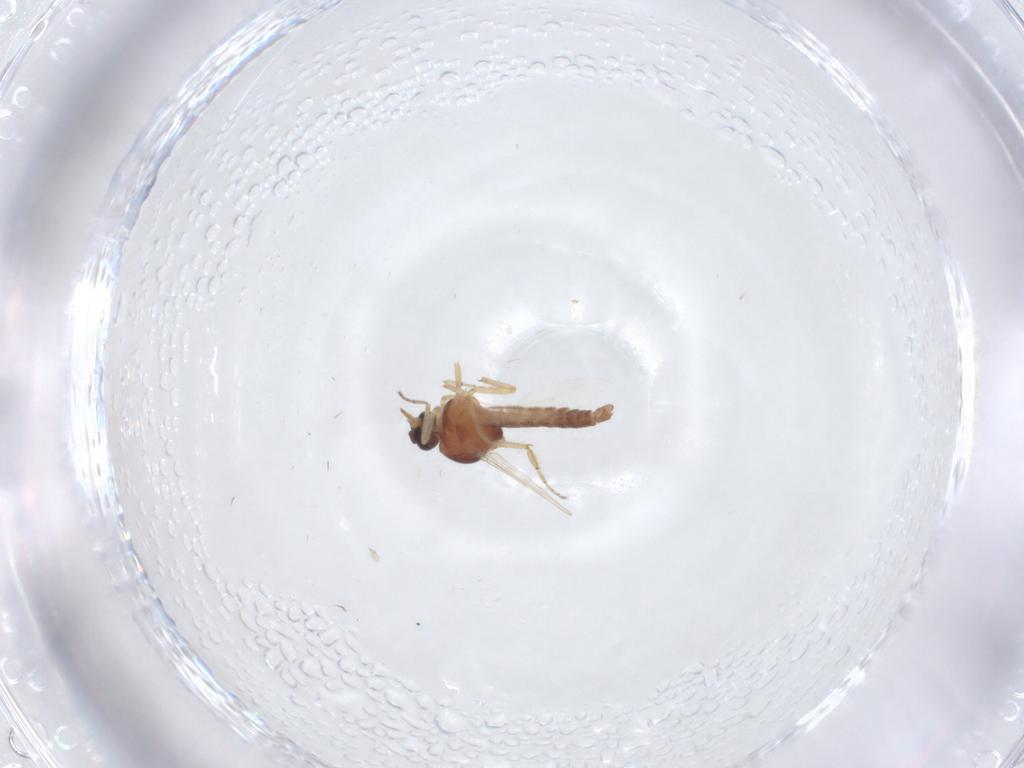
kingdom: Animalia
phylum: Arthropoda
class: Insecta
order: Diptera
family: Cecidomyiidae
